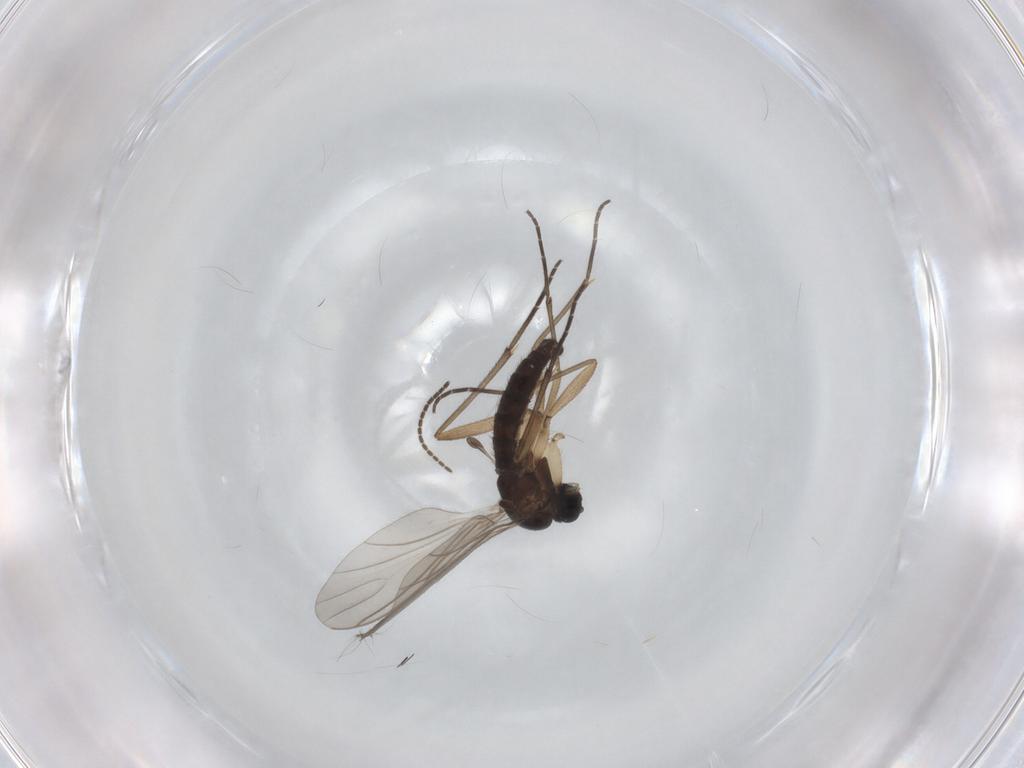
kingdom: Animalia
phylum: Arthropoda
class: Insecta
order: Diptera
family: Sciaridae
